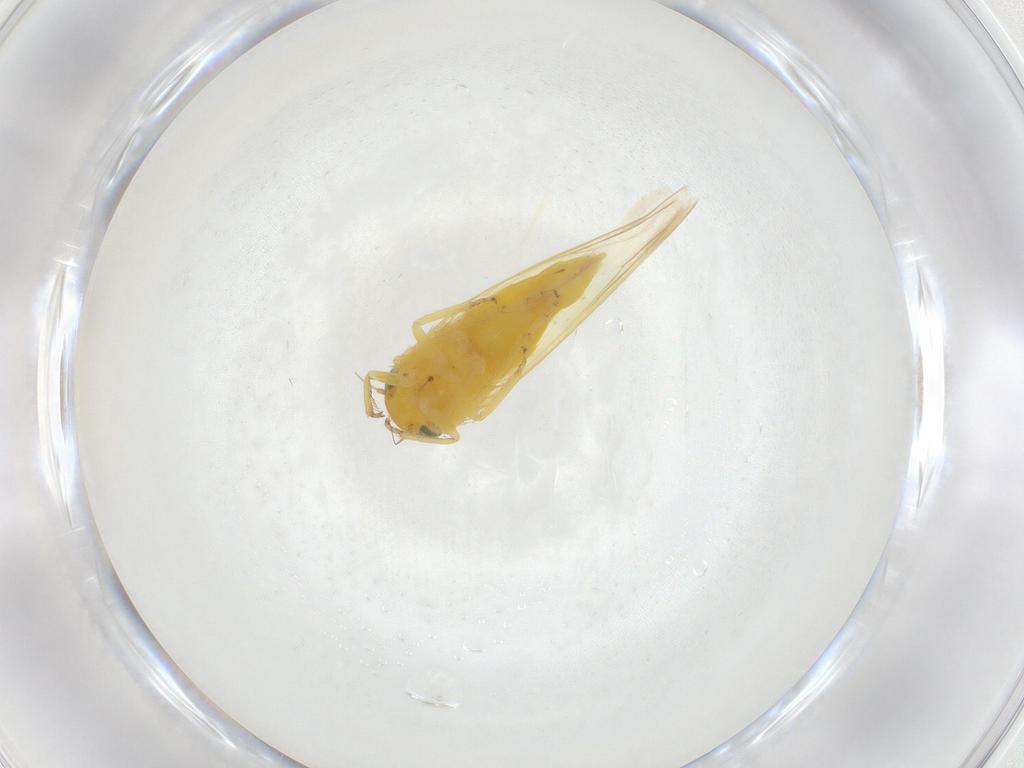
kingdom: Animalia
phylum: Arthropoda
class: Insecta
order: Hemiptera
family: Cicadellidae
